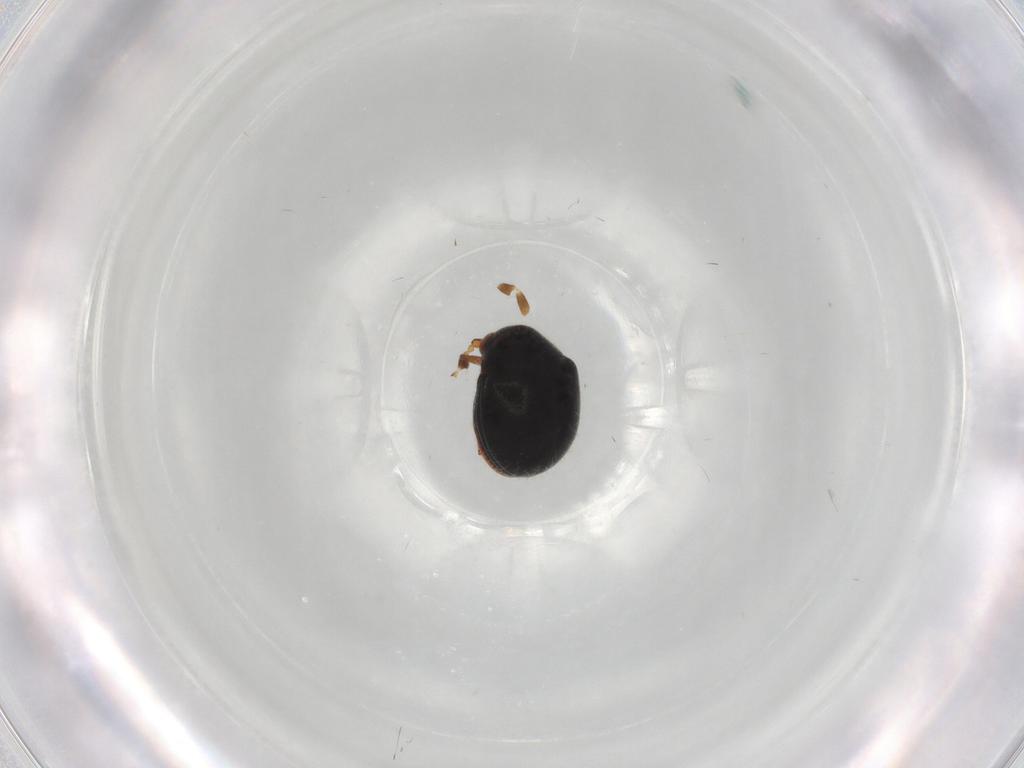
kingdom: Animalia
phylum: Arthropoda
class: Insecta
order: Coleoptera
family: Ptinidae
